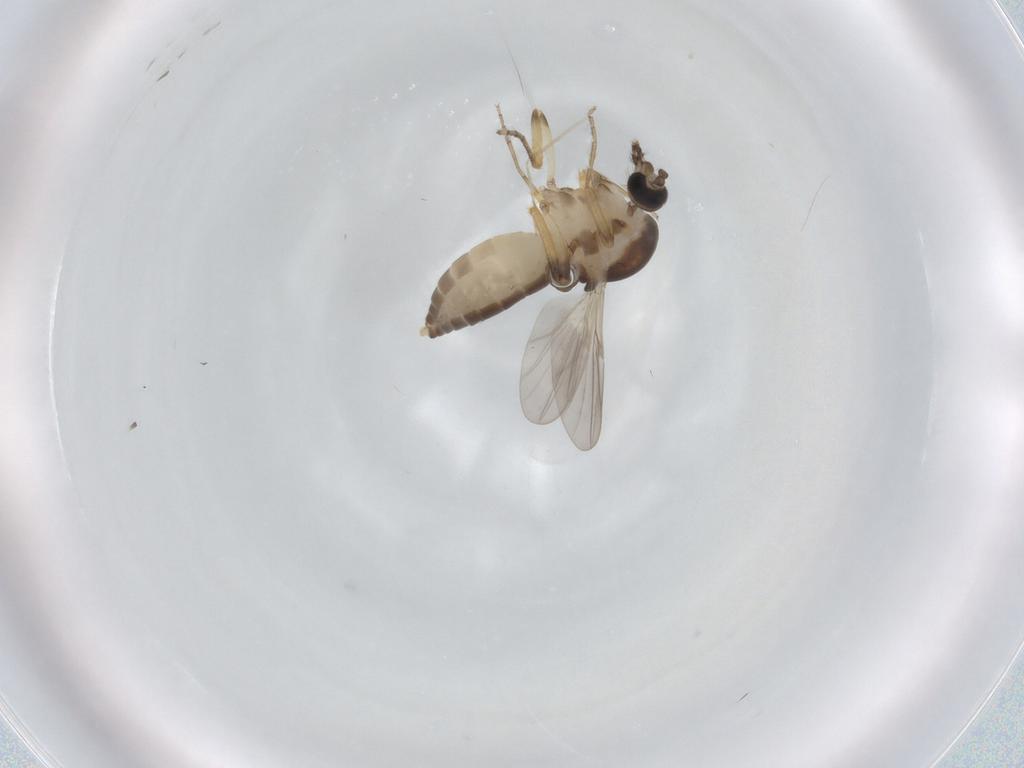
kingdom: Animalia
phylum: Arthropoda
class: Insecta
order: Diptera
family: Ceratopogonidae
